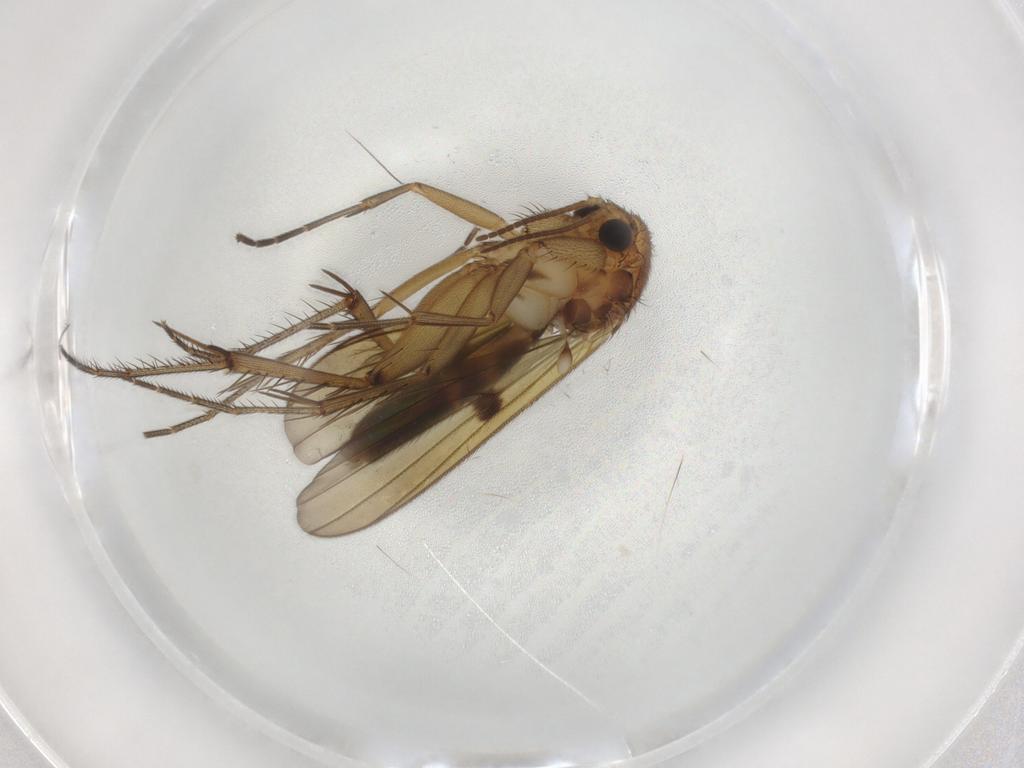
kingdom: Animalia
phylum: Arthropoda
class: Insecta
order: Diptera
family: Mycetophilidae
